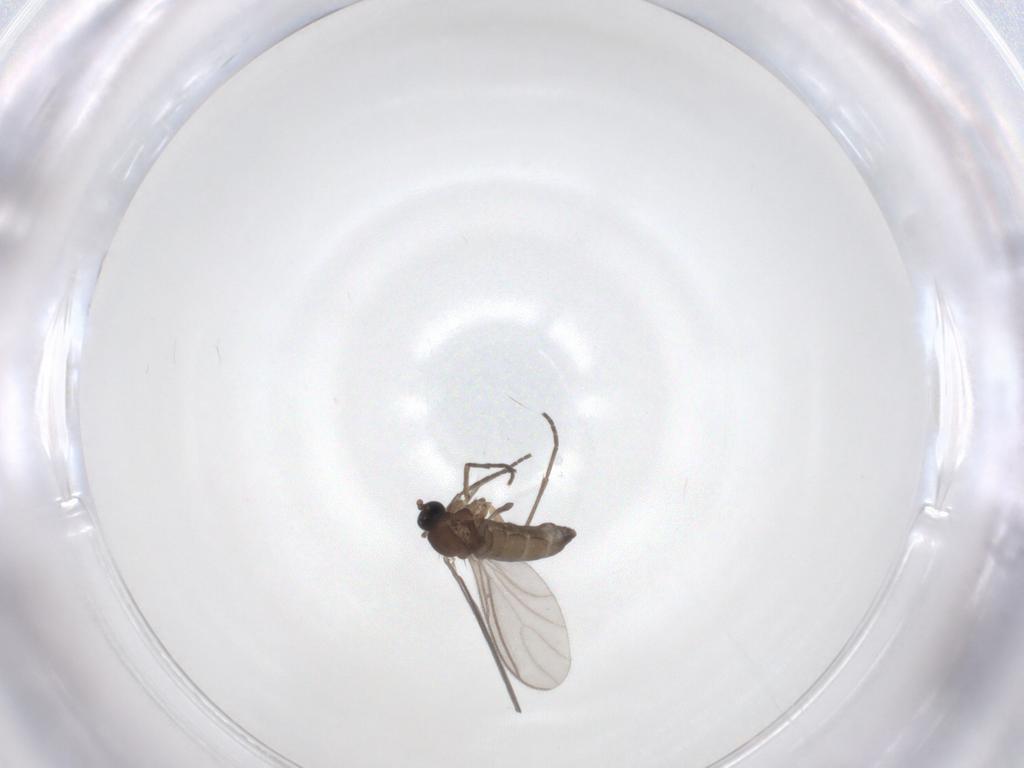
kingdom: Animalia
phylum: Arthropoda
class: Insecta
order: Diptera
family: Sciaridae
